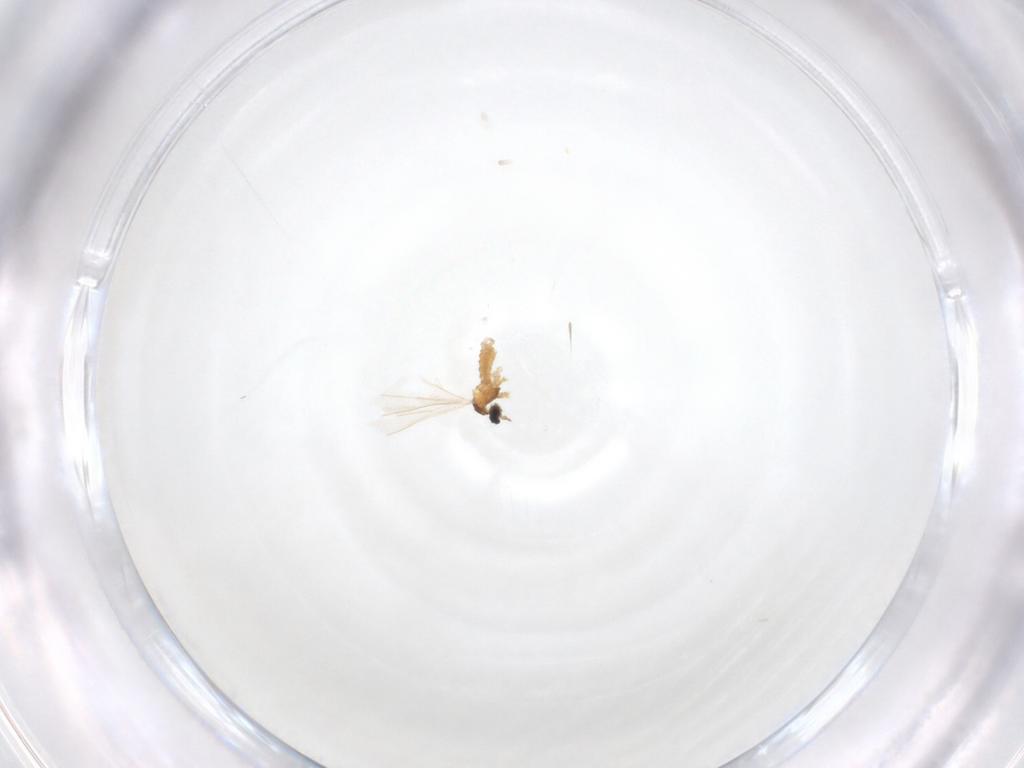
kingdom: Animalia
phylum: Arthropoda
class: Insecta
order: Diptera
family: Cecidomyiidae
